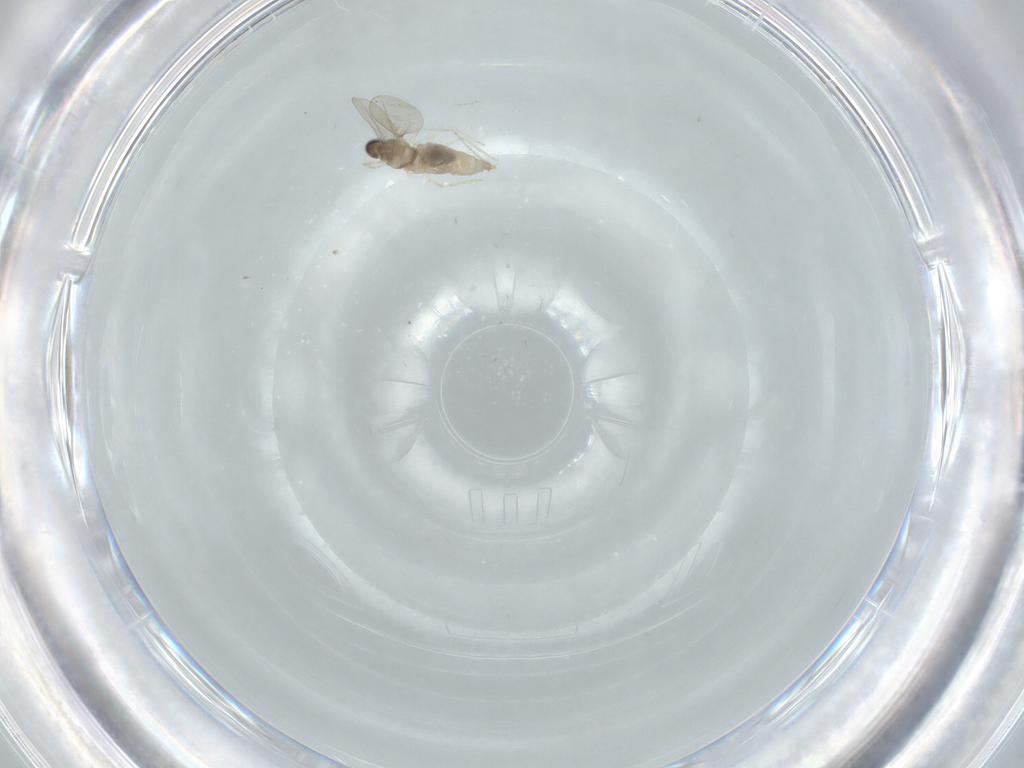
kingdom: Animalia
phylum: Arthropoda
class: Insecta
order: Diptera
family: Cecidomyiidae
